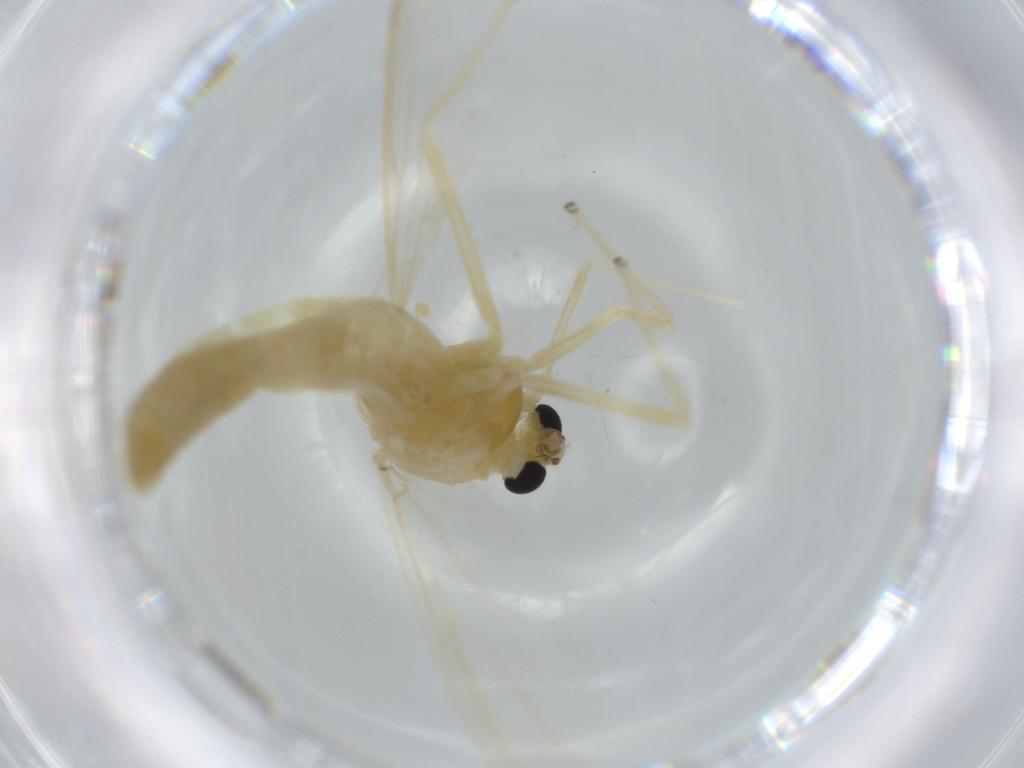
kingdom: Animalia
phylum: Arthropoda
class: Insecta
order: Diptera
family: Chironomidae
